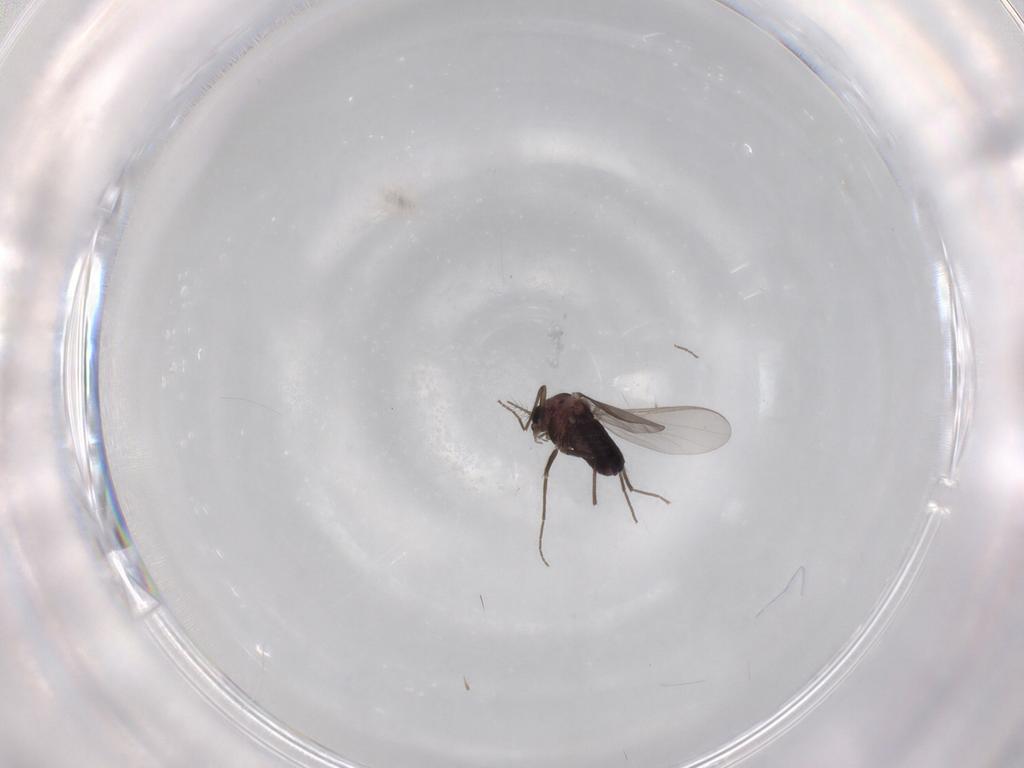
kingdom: Animalia
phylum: Arthropoda
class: Insecta
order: Diptera
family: Chironomidae
